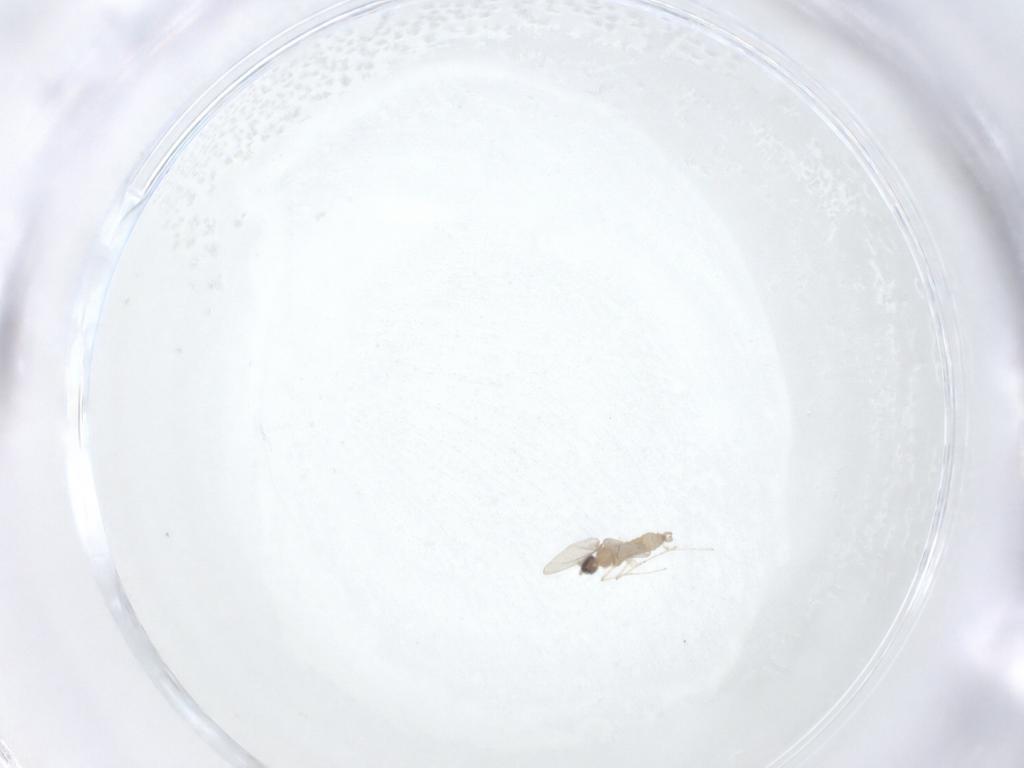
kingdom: Animalia
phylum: Arthropoda
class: Insecta
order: Diptera
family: Cecidomyiidae
